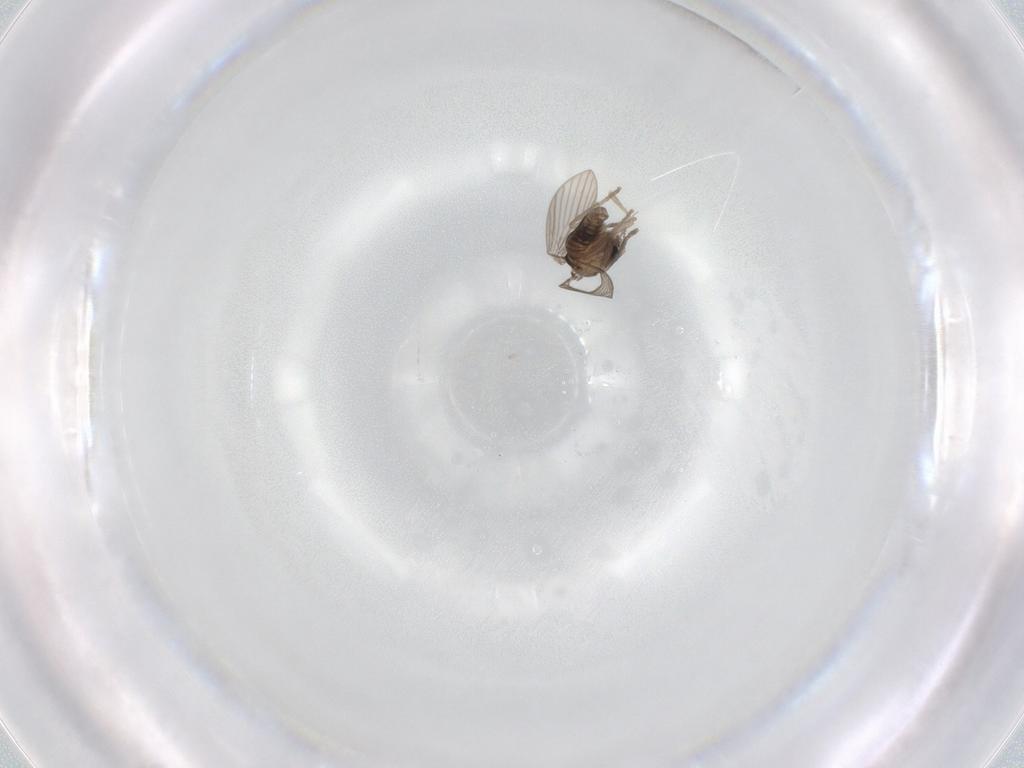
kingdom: Animalia
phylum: Arthropoda
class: Insecta
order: Diptera
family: Psychodidae
